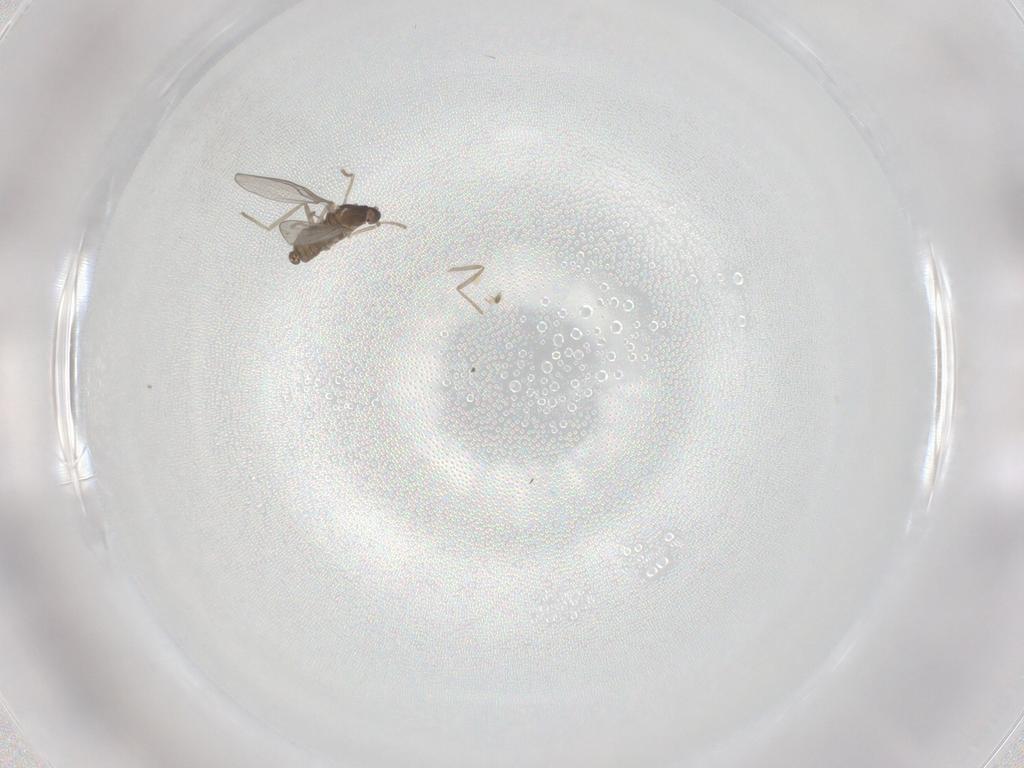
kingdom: Animalia
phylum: Arthropoda
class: Insecta
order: Diptera
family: Cecidomyiidae
